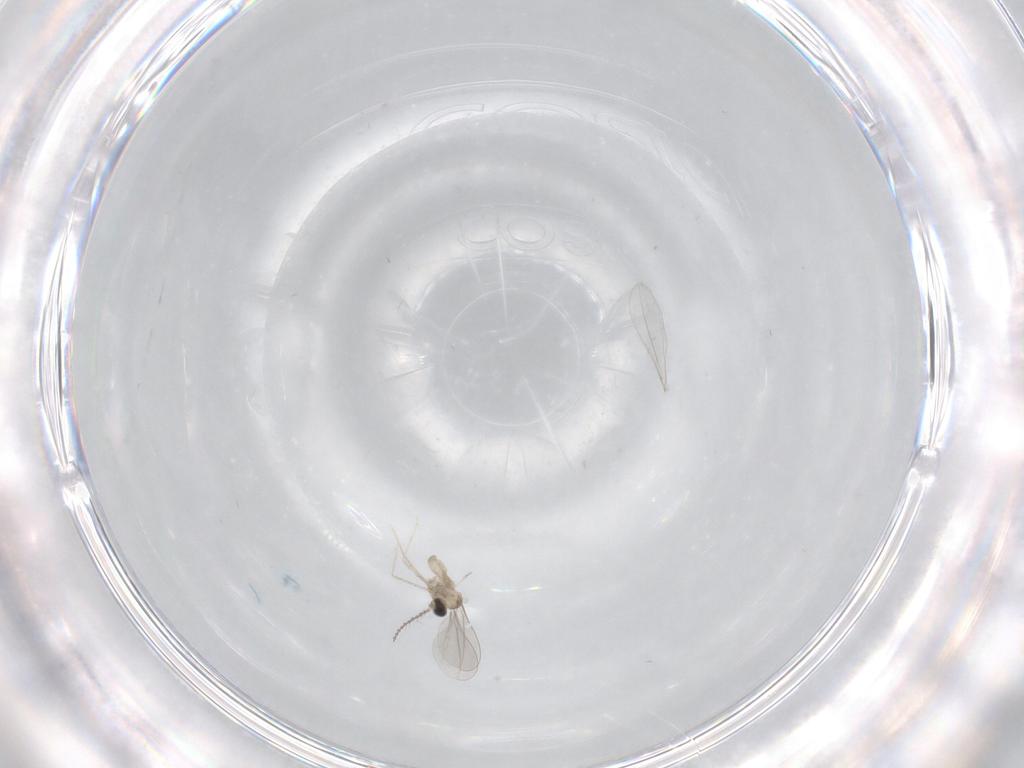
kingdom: Animalia
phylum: Arthropoda
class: Insecta
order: Diptera
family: Cecidomyiidae
